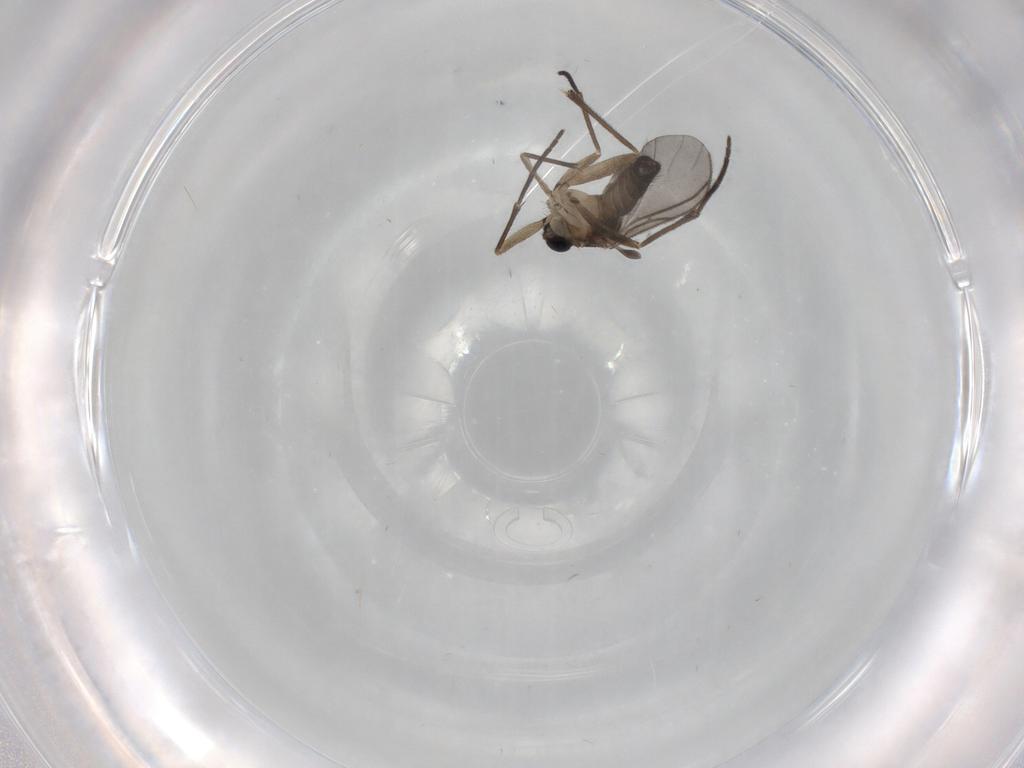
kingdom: Animalia
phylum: Arthropoda
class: Insecta
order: Diptera
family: Sciaridae
